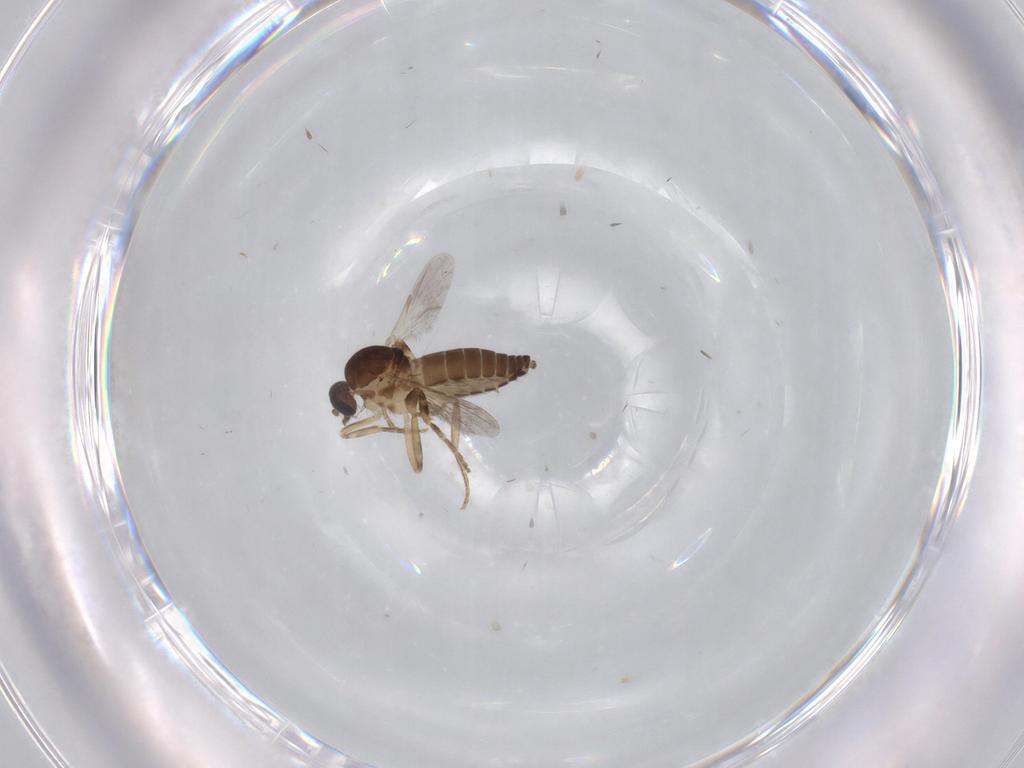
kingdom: Animalia
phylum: Arthropoda
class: Insecta
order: Diptera
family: Ceratopogonidae
